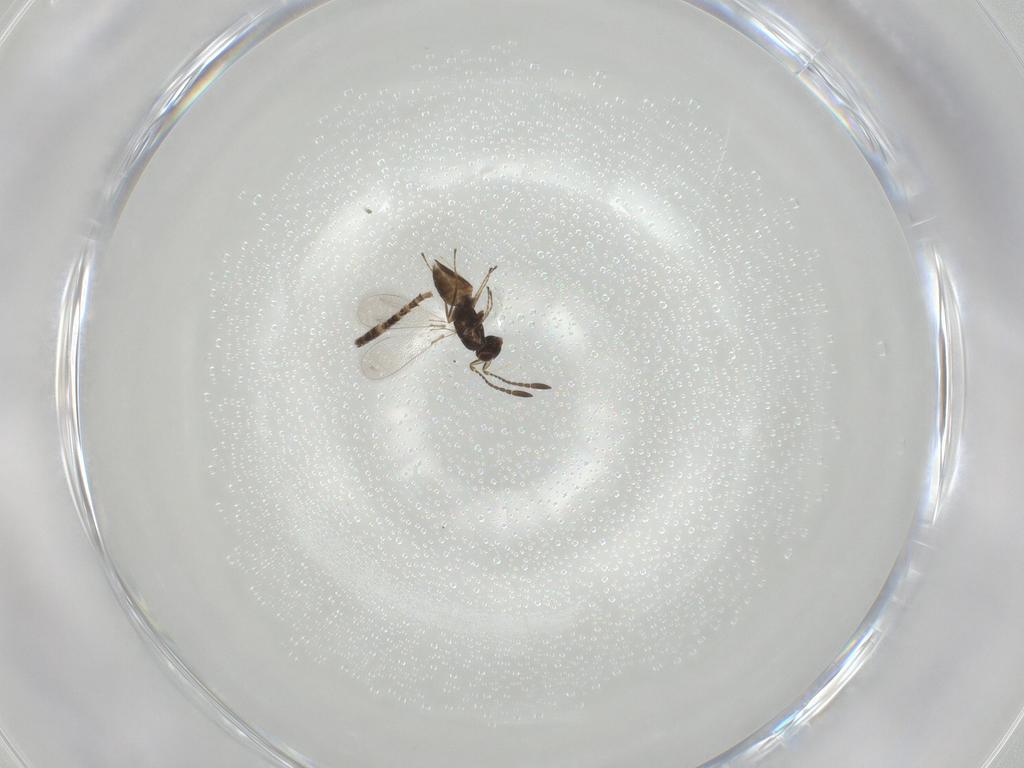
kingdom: Animalia
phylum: Arthropoda
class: Insecta
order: Hymenoptera
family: Mymaridae
